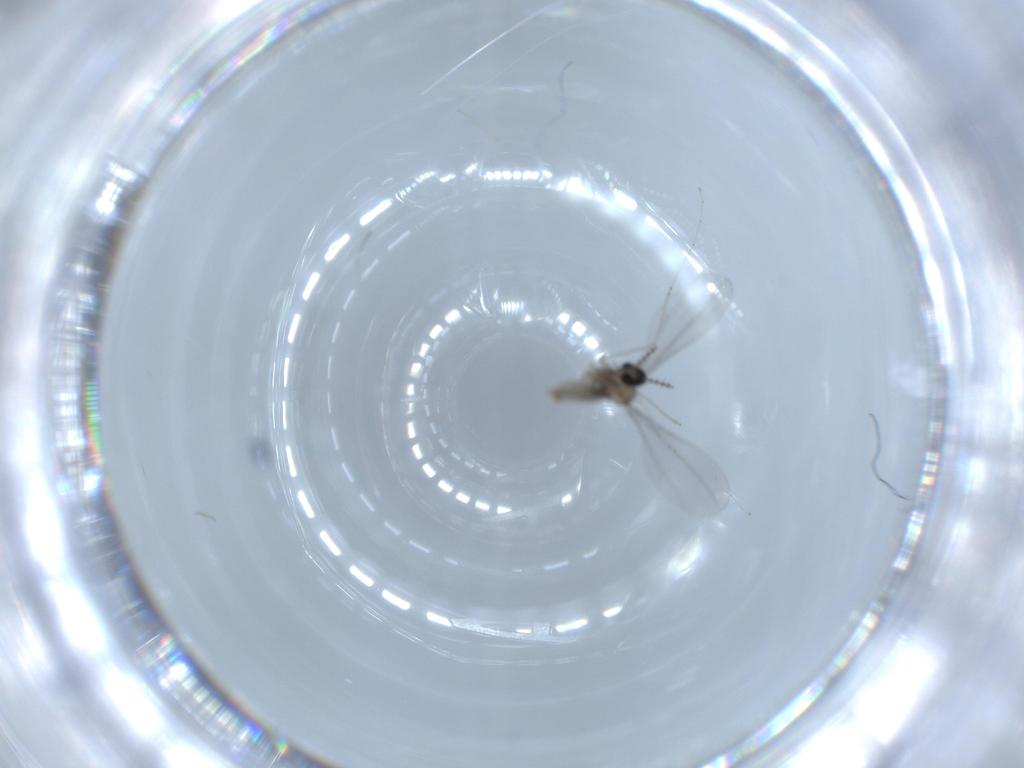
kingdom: Animalia
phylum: Arthropoda
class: Insecta
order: Diptera
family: Cecidomyiidae
